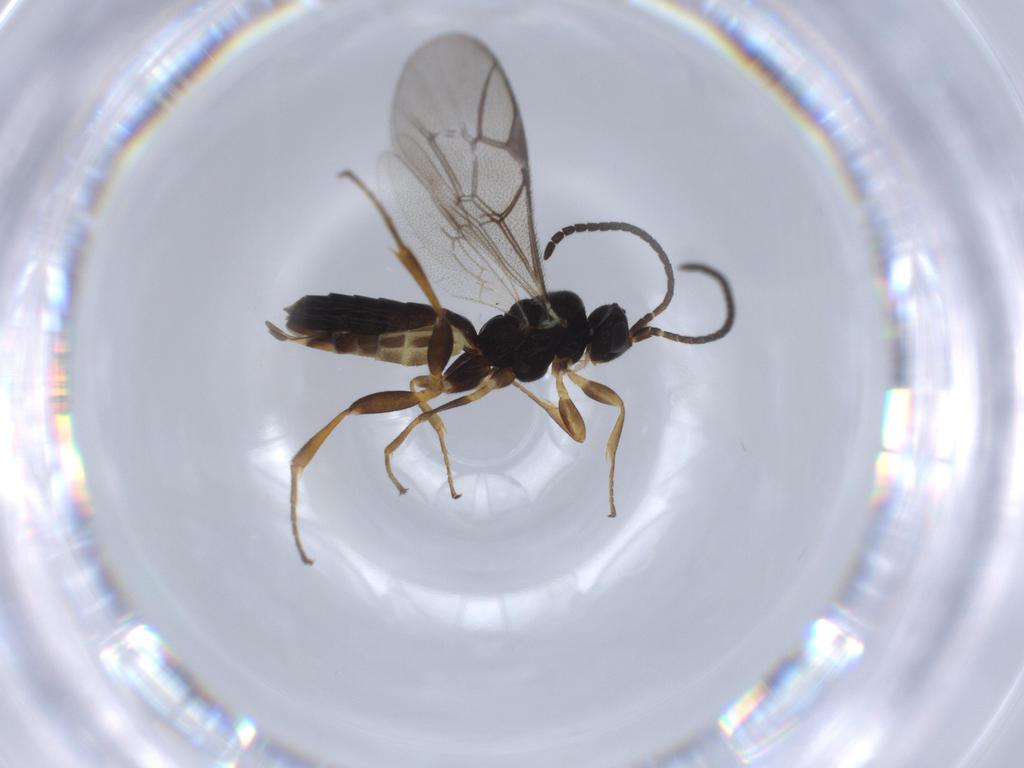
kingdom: Animalia
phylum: Arthropoda
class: Insecta
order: Hymenoptera
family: Ichneumonidae
